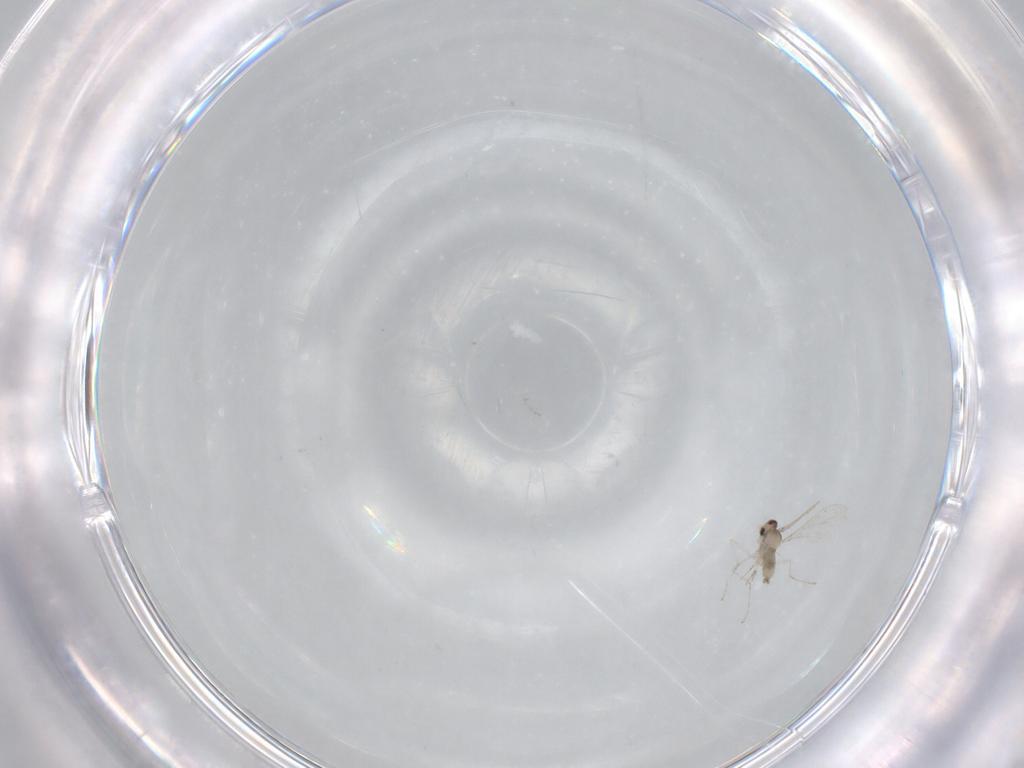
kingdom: Animalia
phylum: Arthropoda
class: Insecta
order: Diptera
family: Cecidomyiidae
